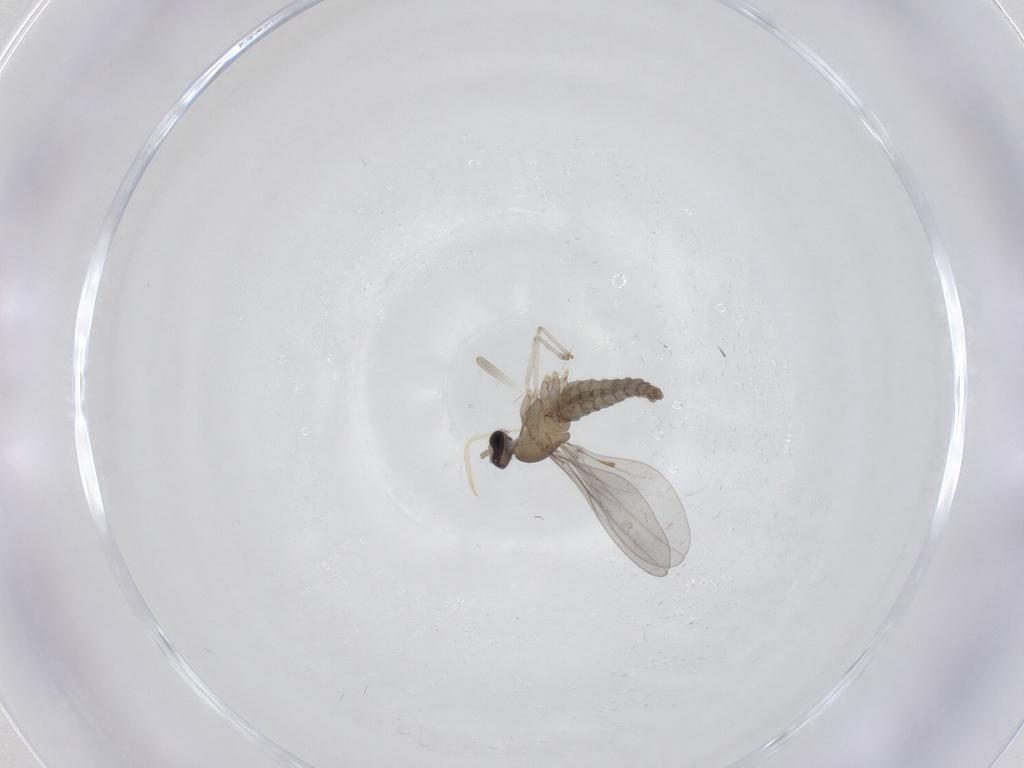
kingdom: Animalia
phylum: Arthropoda
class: Insecta
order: Diptera
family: Cecidomyiidae
